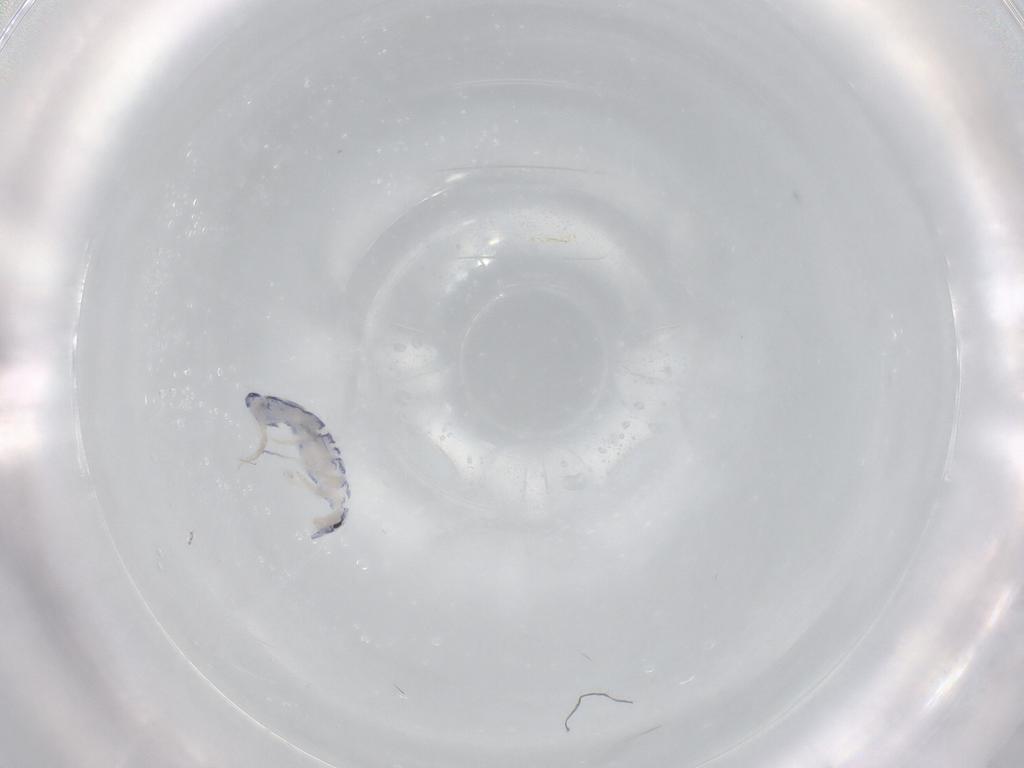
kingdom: Animalia
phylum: Arthropoda
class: Collembola
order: Entomobryomorpha
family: Entomobryidae
